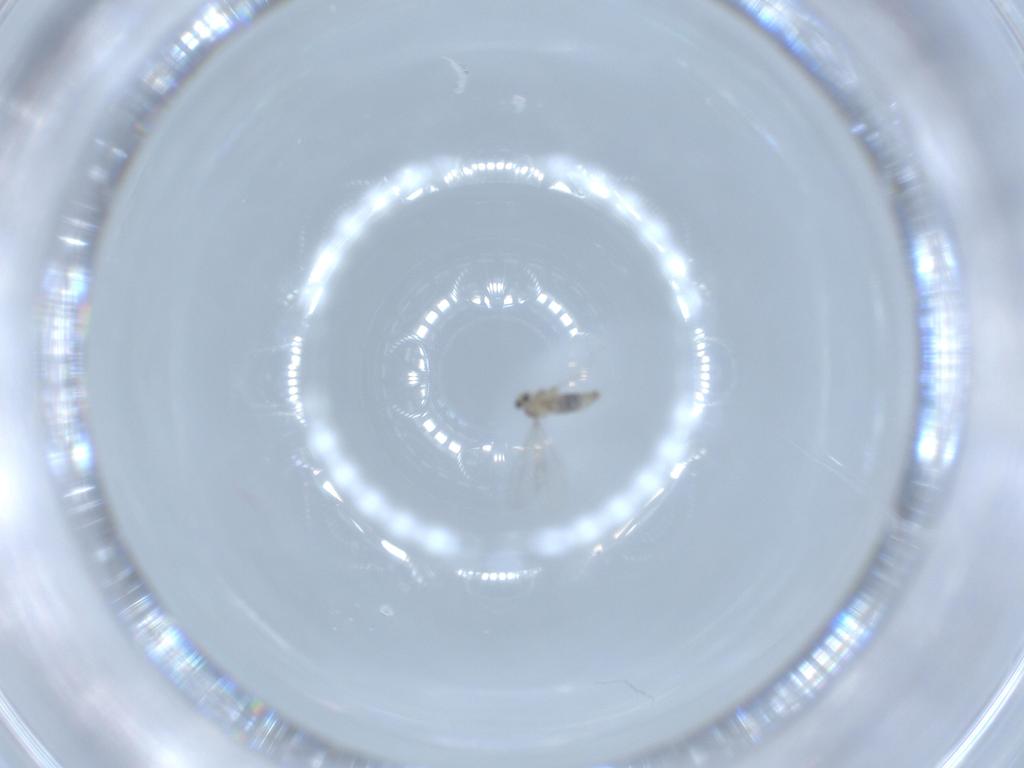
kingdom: Animalia
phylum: Arthropoda
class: Insecta
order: Diptera
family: Cecidomyiidae
